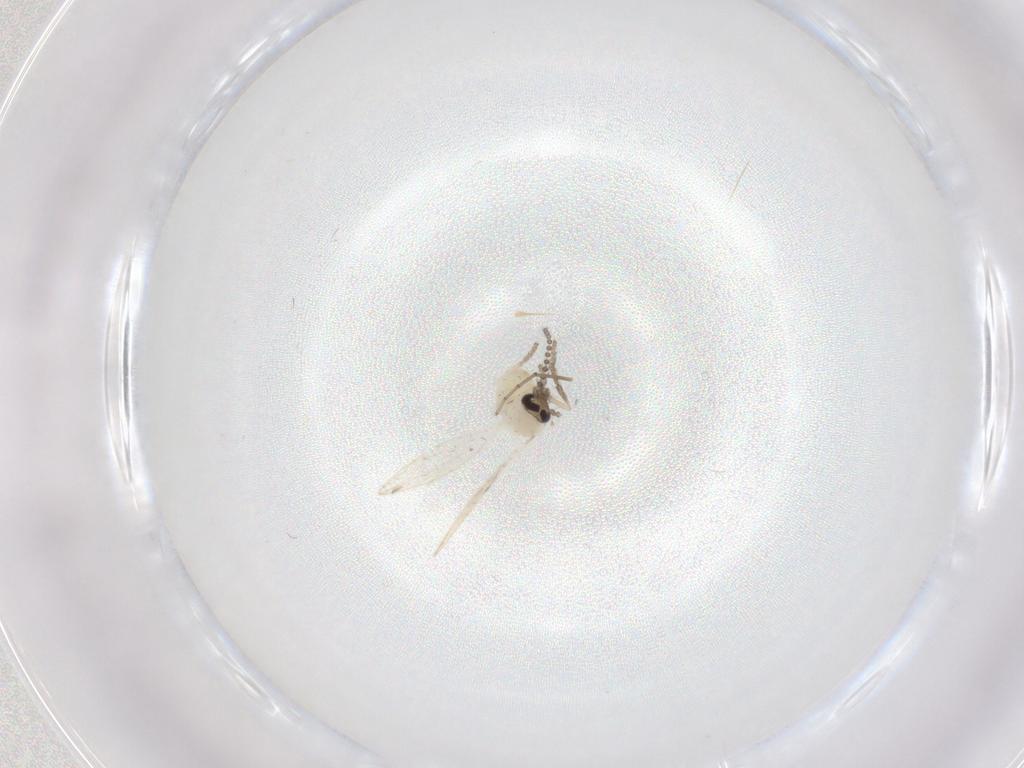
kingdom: Animalia
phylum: Arthropoda
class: Insecta
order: Diptera
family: Psychodidae
